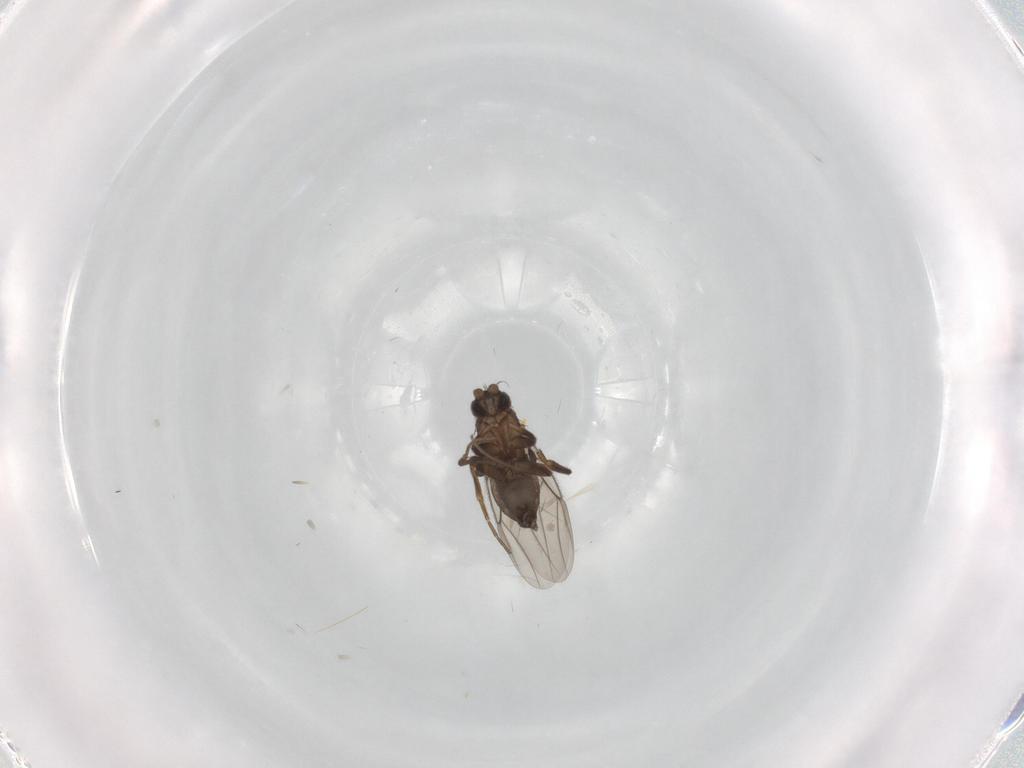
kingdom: Animalia
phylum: Arthropoda
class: Insecta
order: Diptera
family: Phoridae
